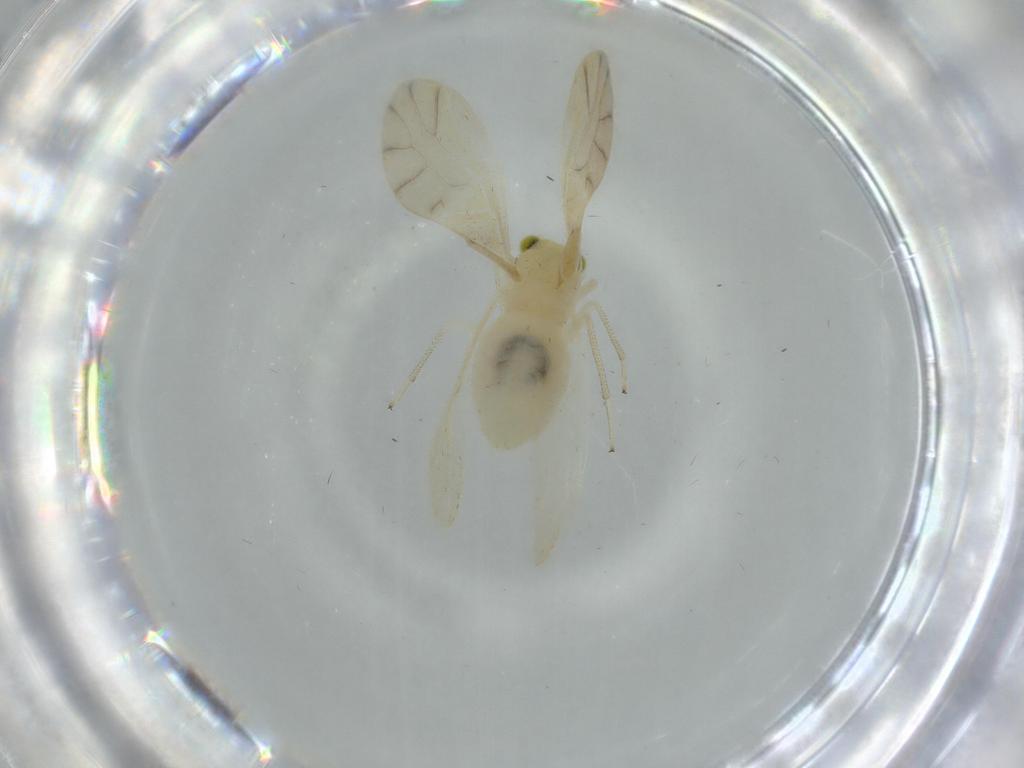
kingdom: Animalia
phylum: Arthropoda
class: Insecta
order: Psocodea
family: Caeciliusidae
